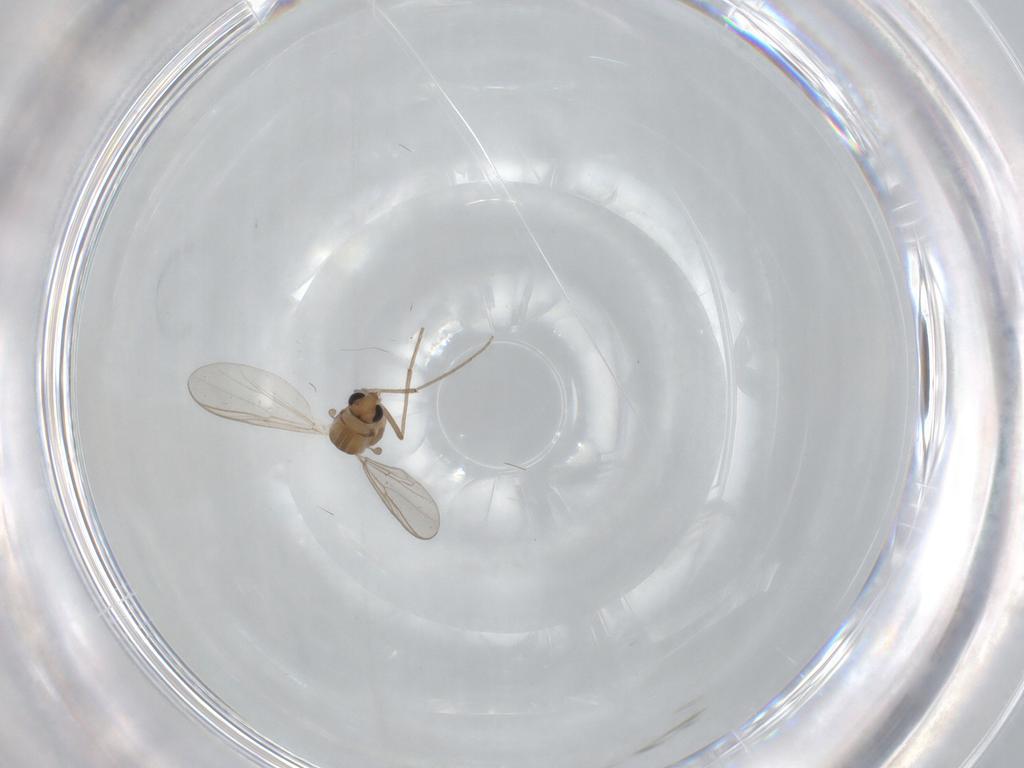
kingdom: Animalia
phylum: Arthropoda
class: Insecta
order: Diptera
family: Chironomidae
